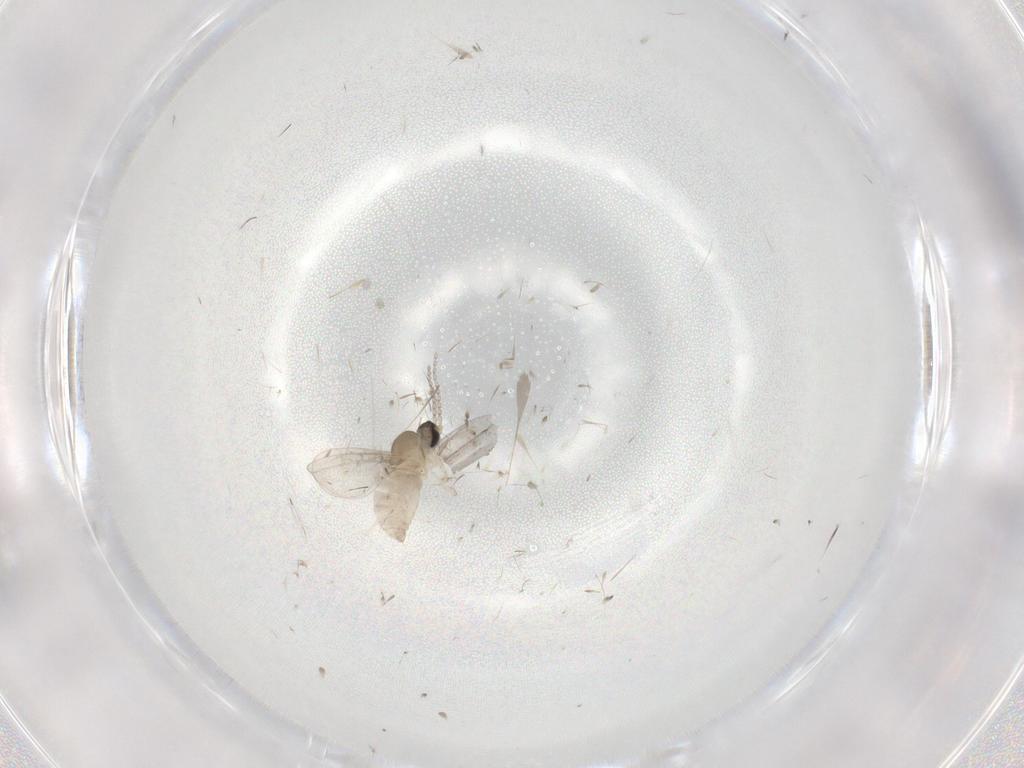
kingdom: Animalia
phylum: Arthropoda
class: Insecta
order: Diptera
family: Cecidomyiidae
